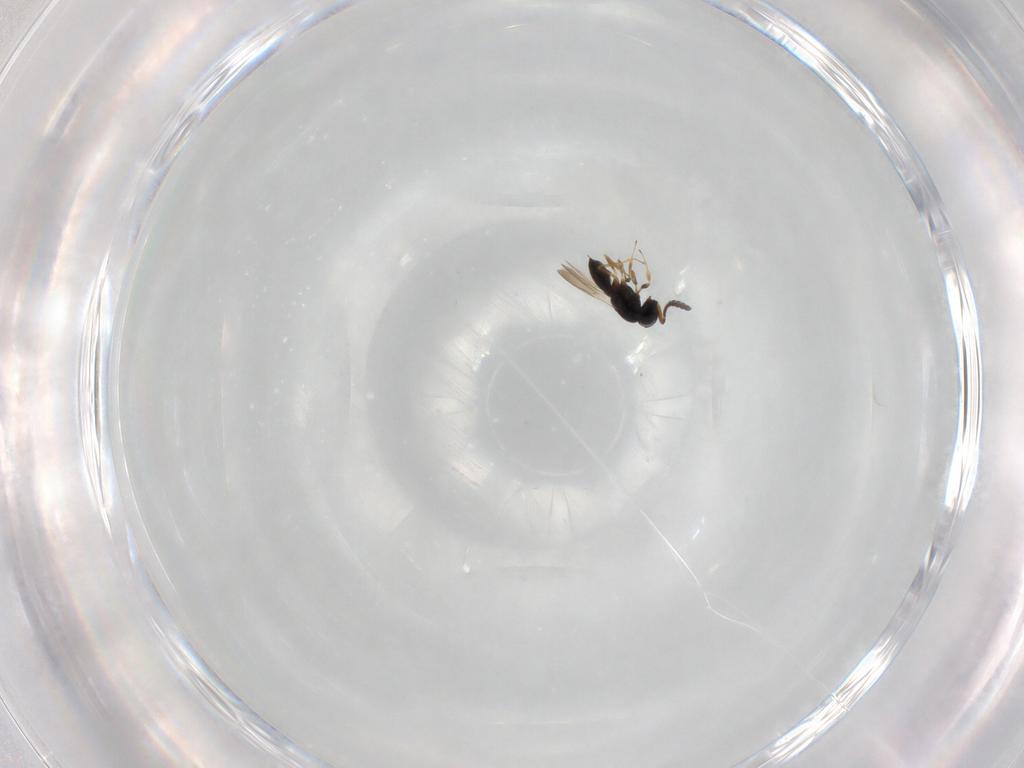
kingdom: Animalia
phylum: Arthropoda
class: Insecta
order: Hymenoptera
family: Scelionidae
